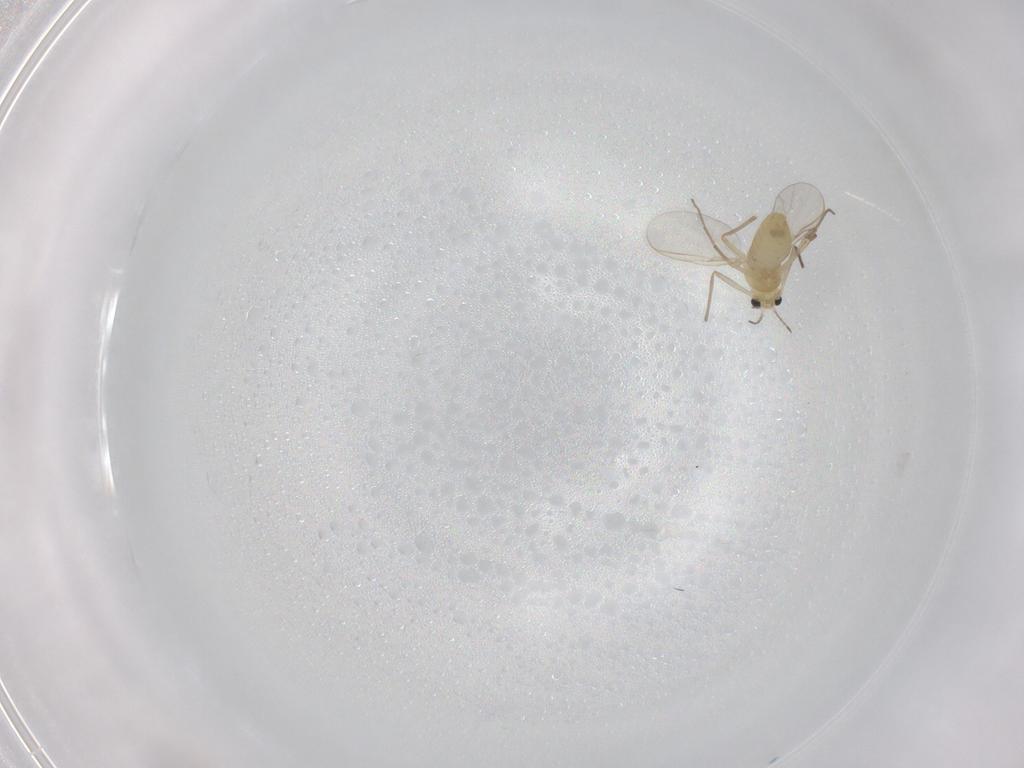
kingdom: Animalia
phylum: Arthropoda
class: Insecta
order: Diptera
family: Chironomidae
